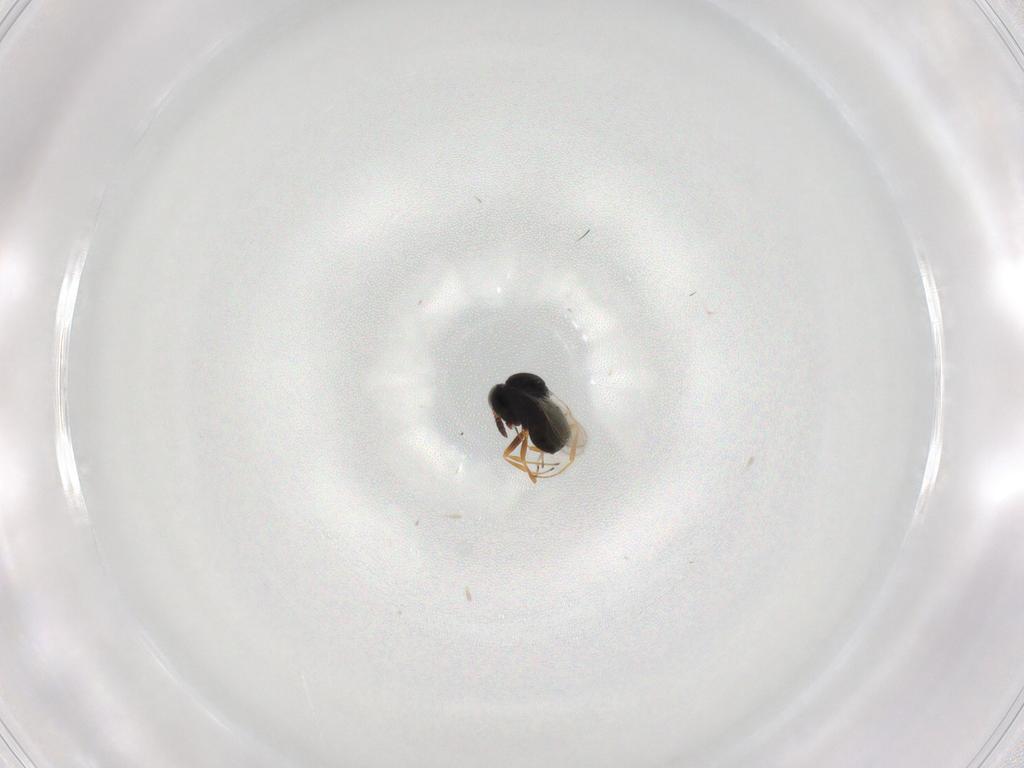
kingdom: Animalia
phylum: Arthropoda
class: Insecta
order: Hymenoptera
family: Scelionidae
